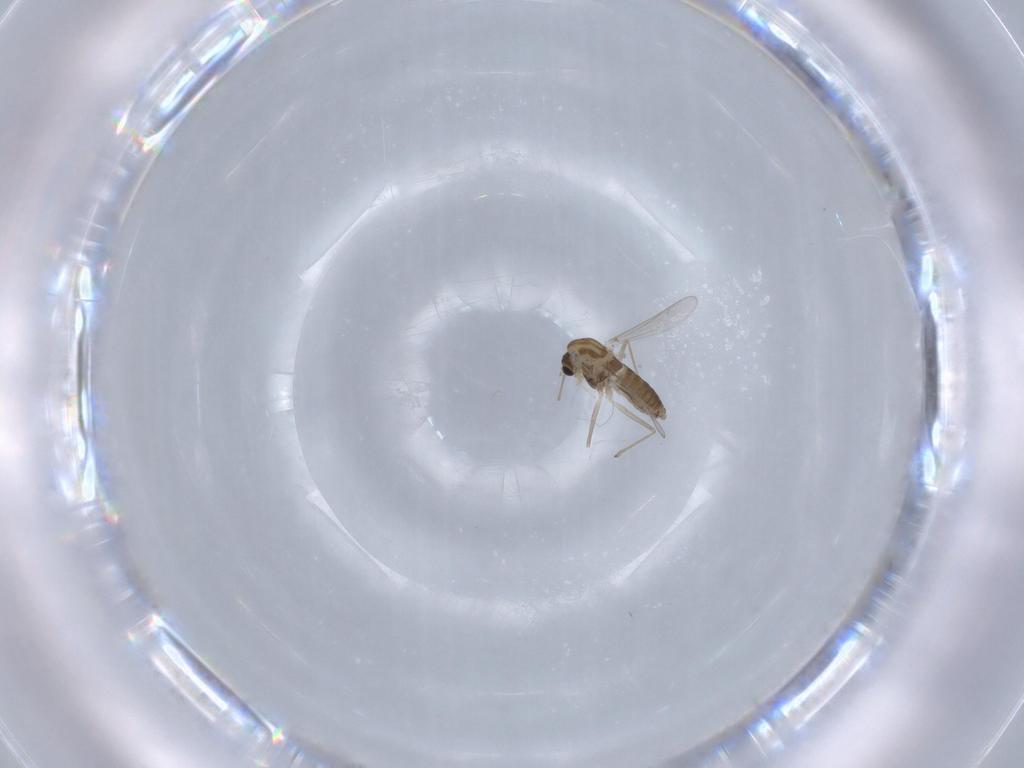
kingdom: Animalia
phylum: Arthropoda
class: Insecta
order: Diptera
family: Chironomidae
